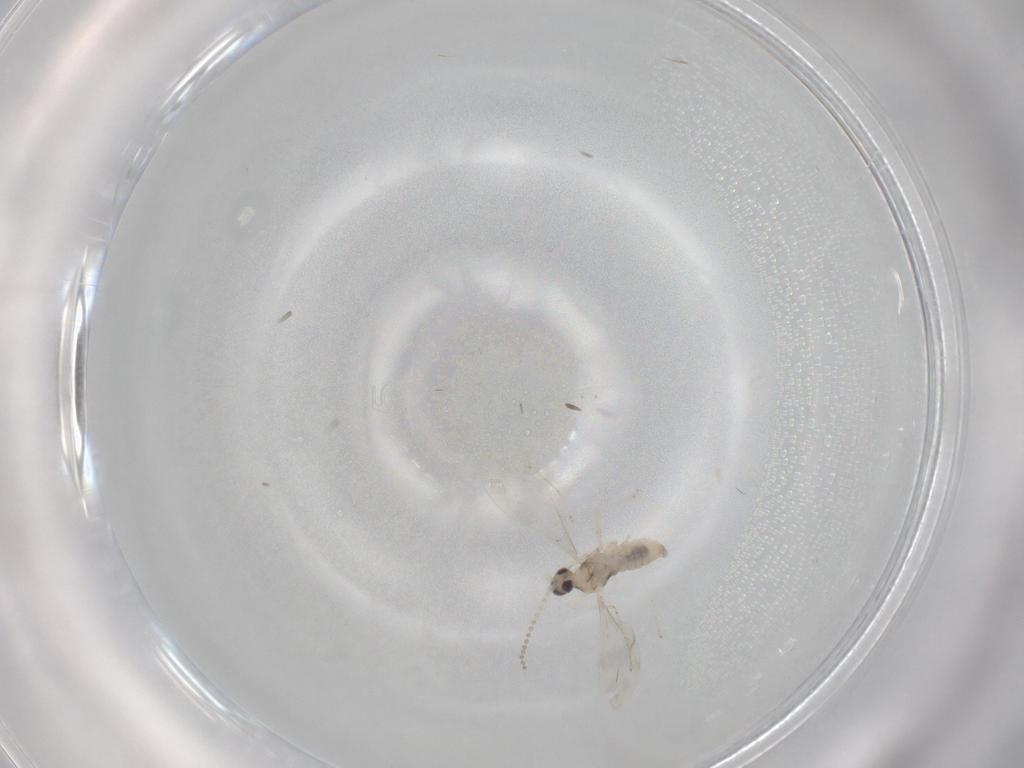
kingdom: Animalia
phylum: Arthropoda
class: Insecta
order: Diptera
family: Cecidomyiidae
